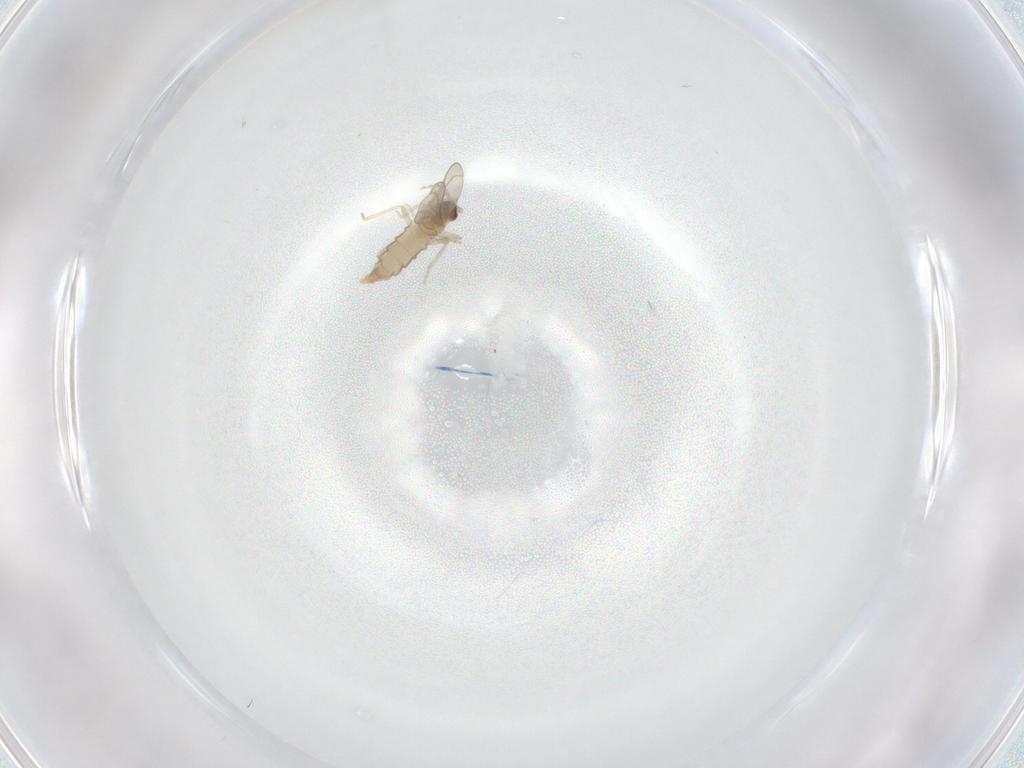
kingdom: Animalia
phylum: Arthropoda
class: Insecta
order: Diptera
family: Cecidomyiidae
